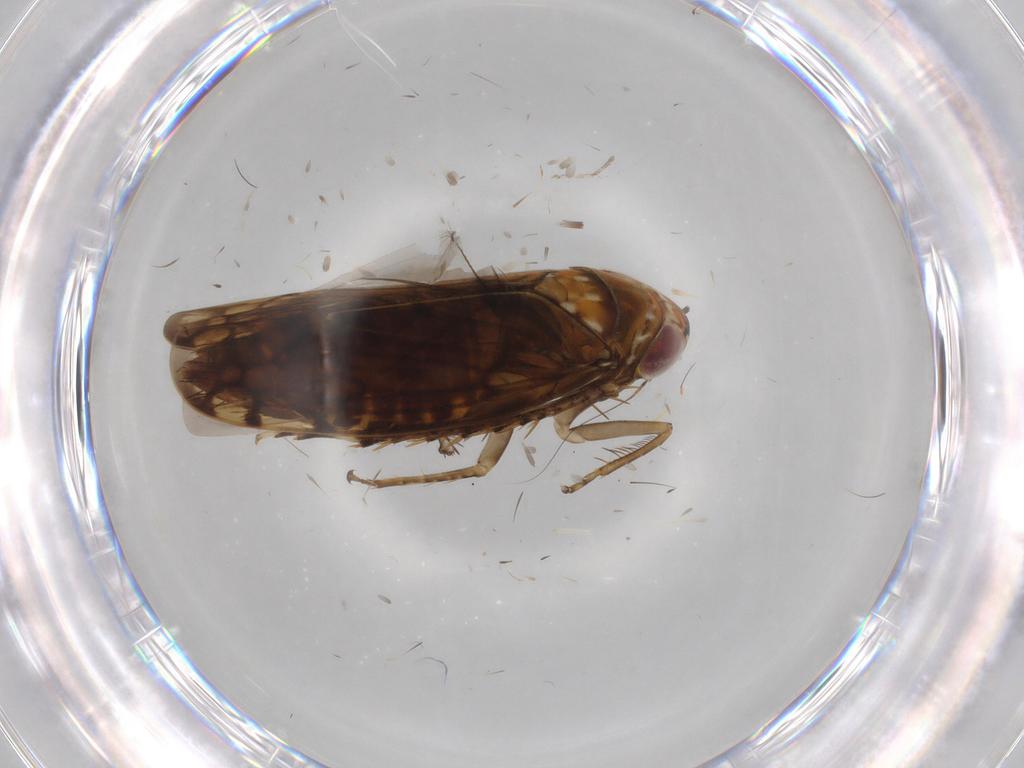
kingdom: Animalia
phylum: Arthropoda
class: Insecta
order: Hemiptera
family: Cicadellidae
